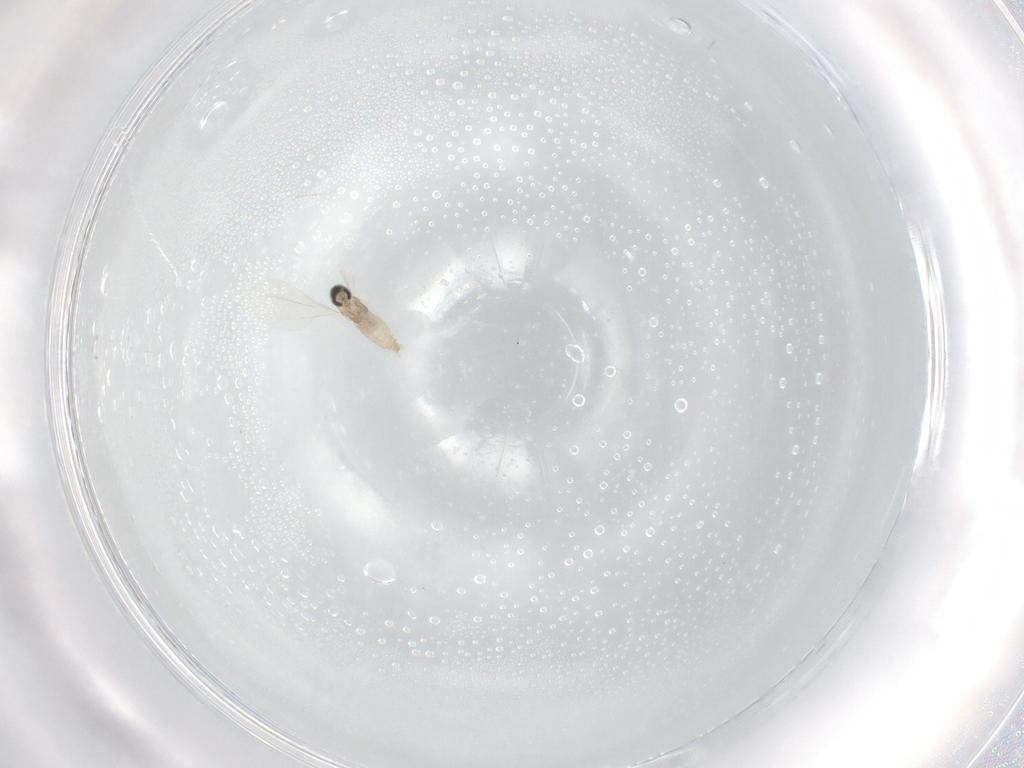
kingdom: Animalia
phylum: Arthropoda
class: Insecta
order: Diptera
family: Cecidomyiidae
